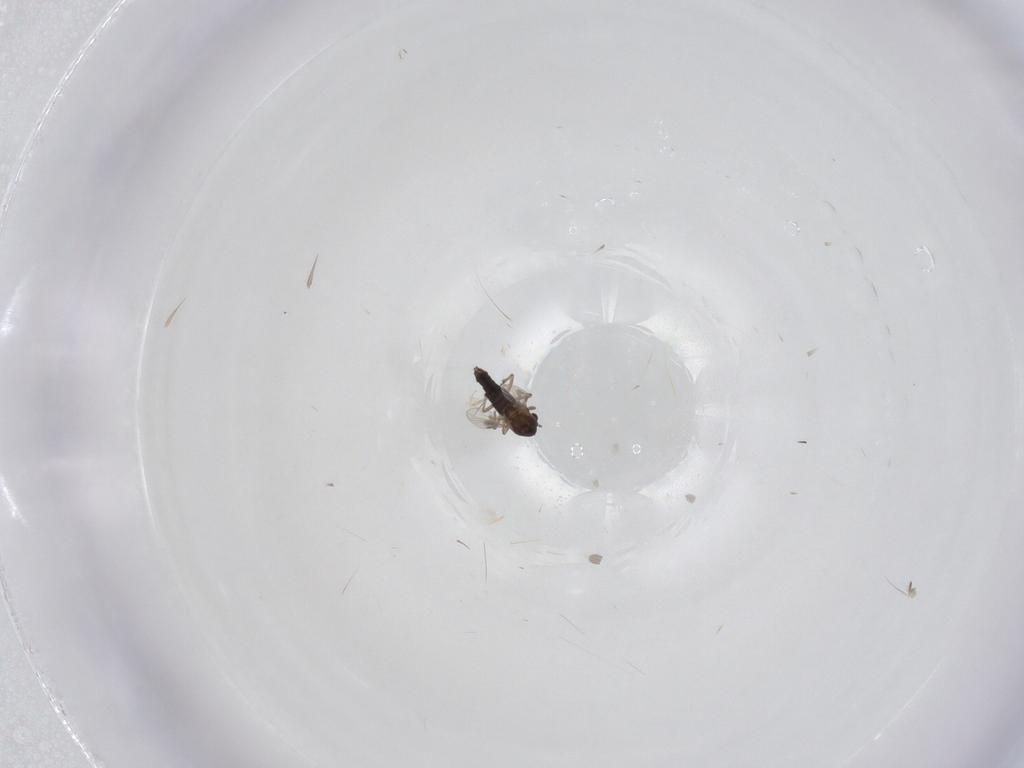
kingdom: Animalia
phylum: Arthropoda
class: Insecta
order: Diptera
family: Chironomidae
